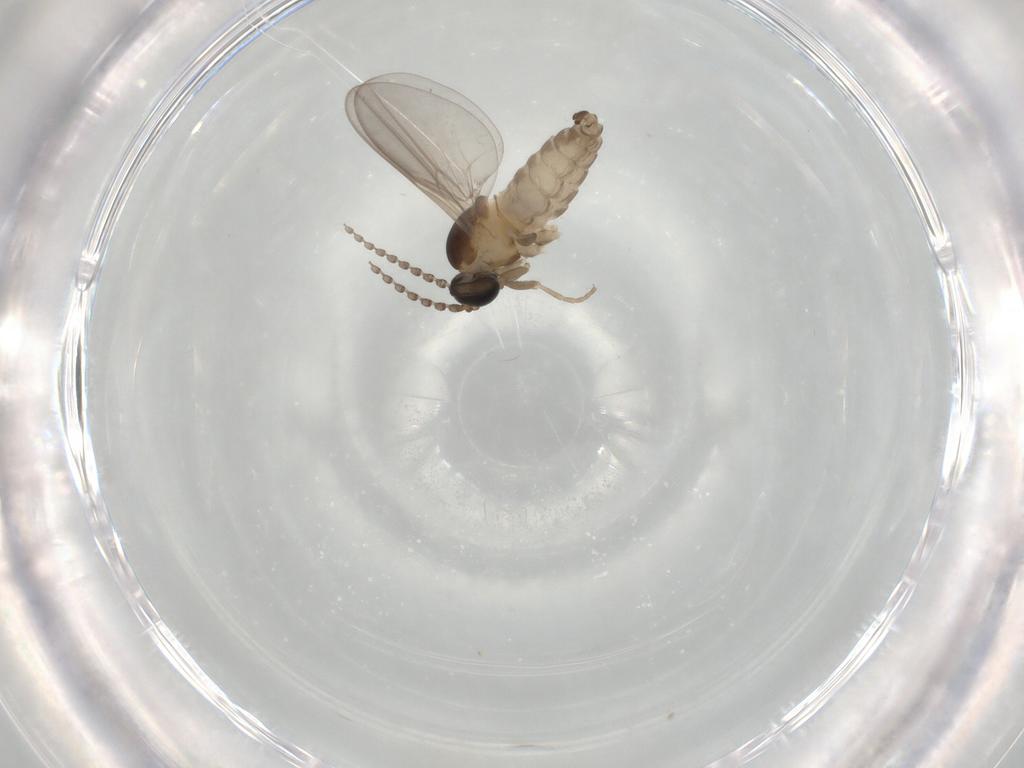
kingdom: Animalia
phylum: Arthropoda
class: Insecta
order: Diptera
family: Cecidomyiidae
